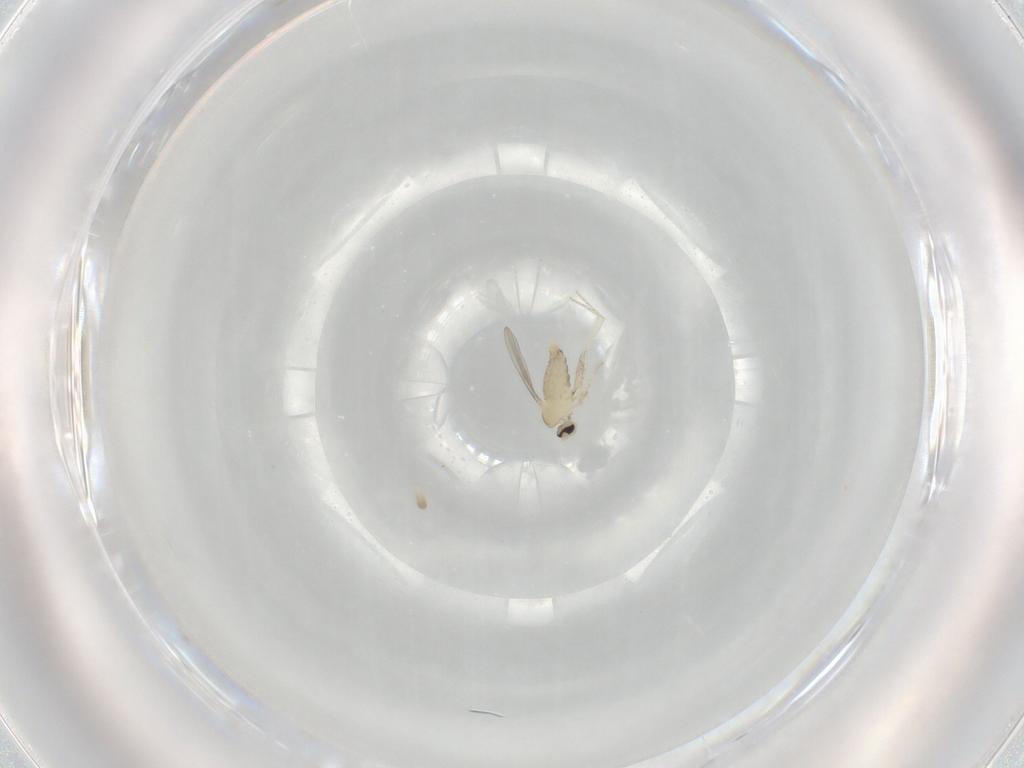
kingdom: Animalia
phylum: Arthropoda
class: Insecta
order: Diptera
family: Cecidomyiidae
